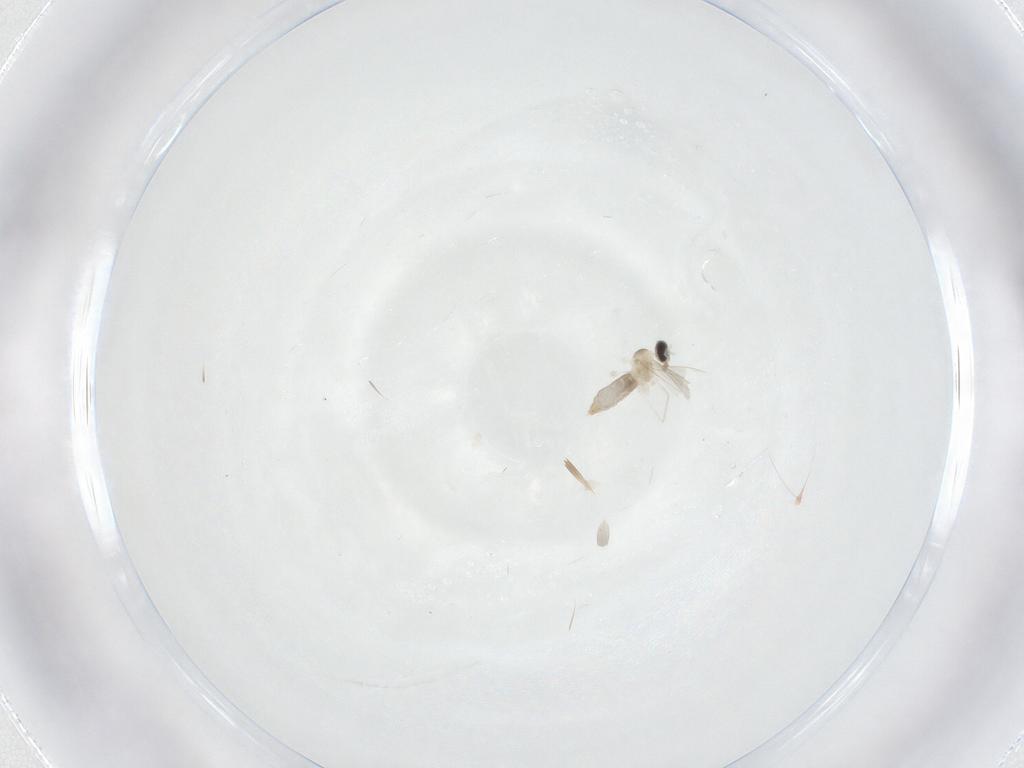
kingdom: Animalia
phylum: Arthropoda
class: Insecta
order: Diptera
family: Cecidomyiidae
